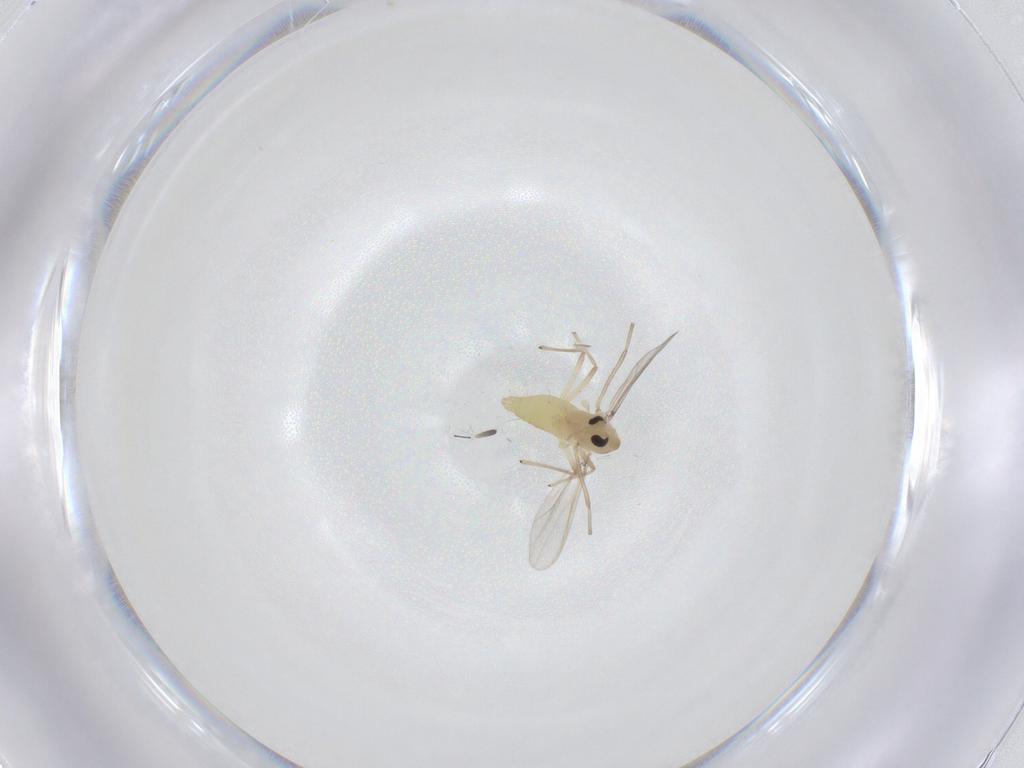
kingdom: Animalia
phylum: Arthropoda
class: Insecta
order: Diptera
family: Chironomidae
